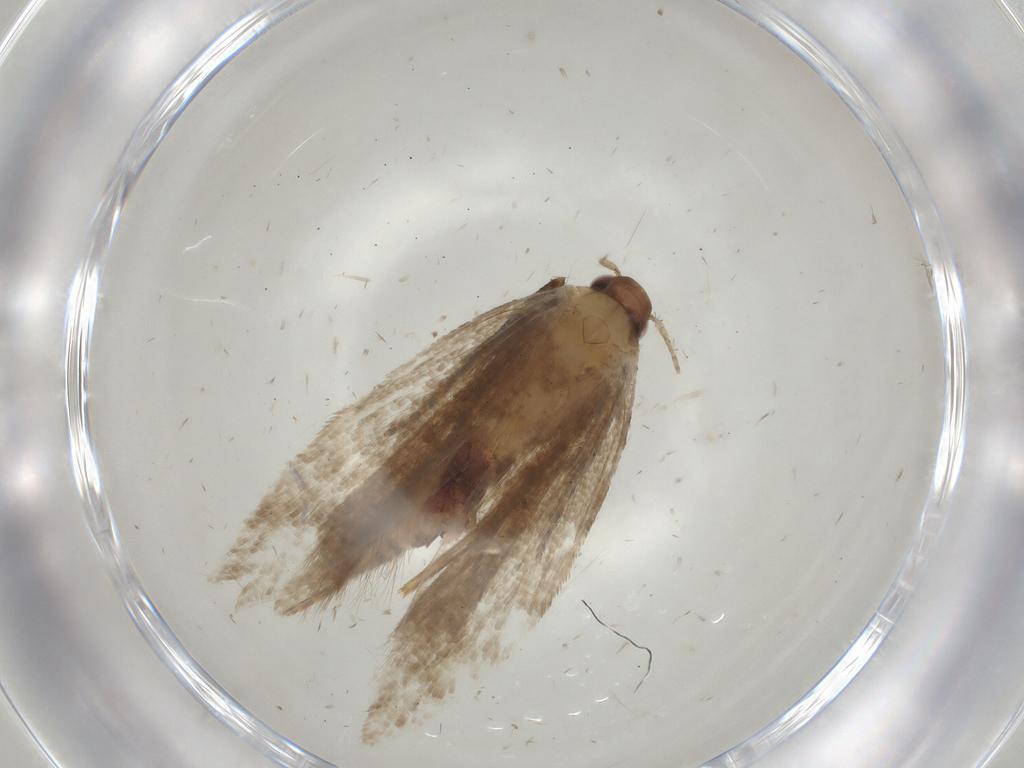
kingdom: Animalia
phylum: Arthropoda
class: Insecta
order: Lepidoptera
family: Gelechiidae
